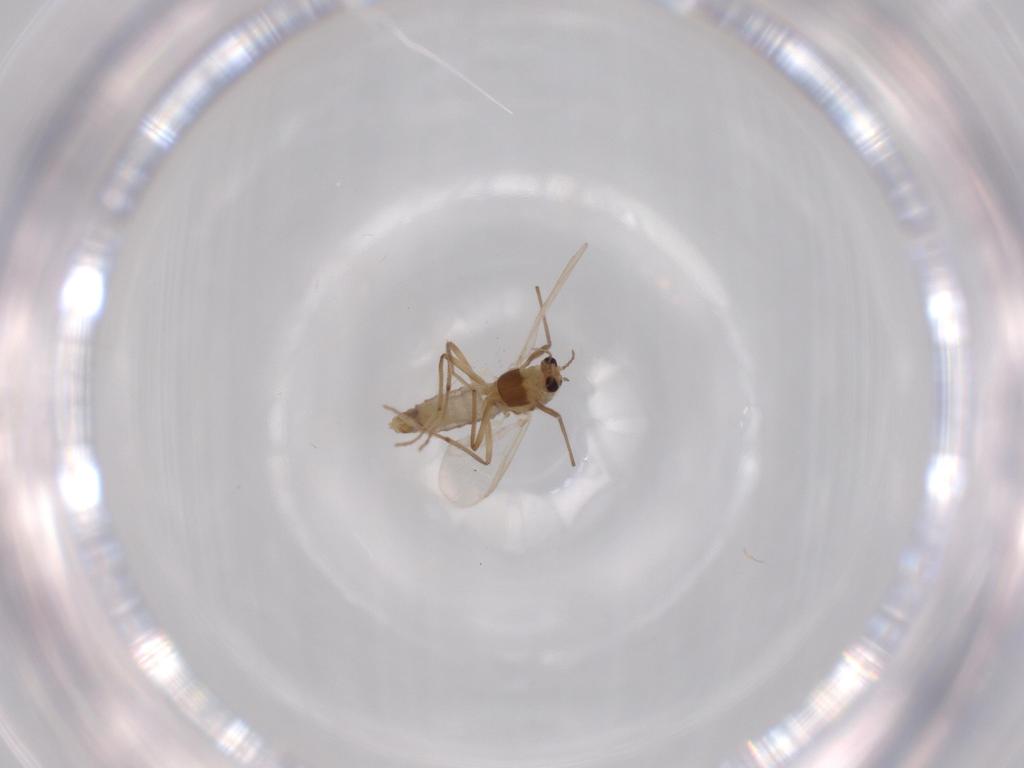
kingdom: Animalia
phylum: Arthropoda
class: Insecta
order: Diptera
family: Chironomidae
